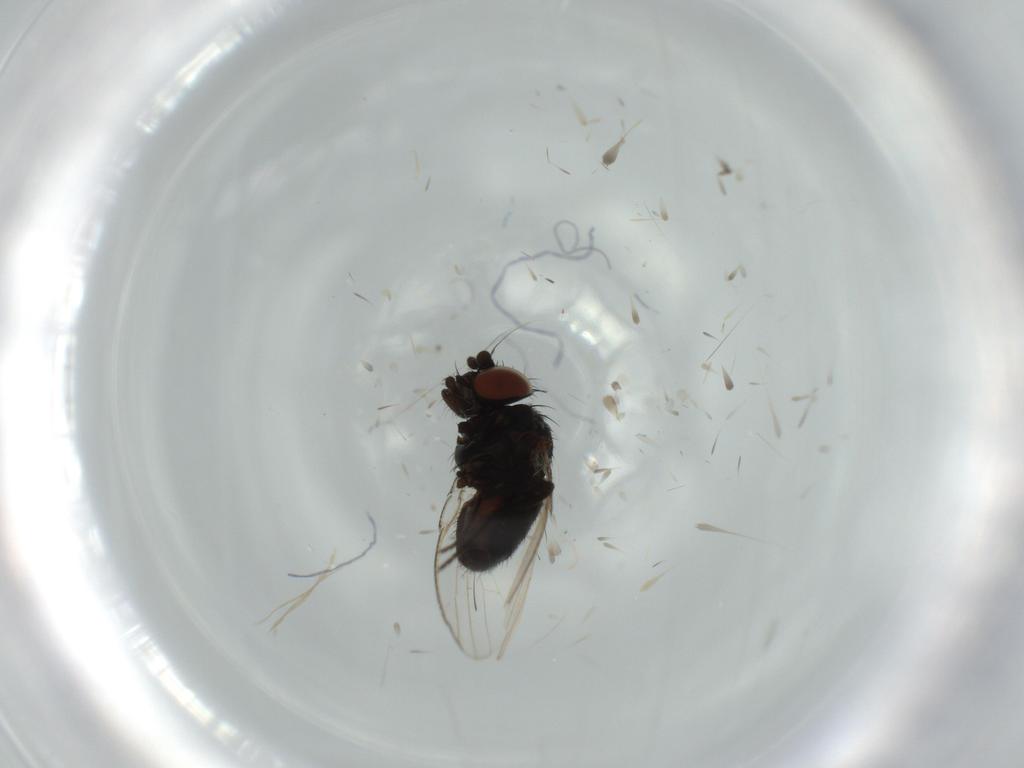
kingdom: Animalia
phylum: Arthropoda
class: Insecta
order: Diptera
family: Milichiidae
